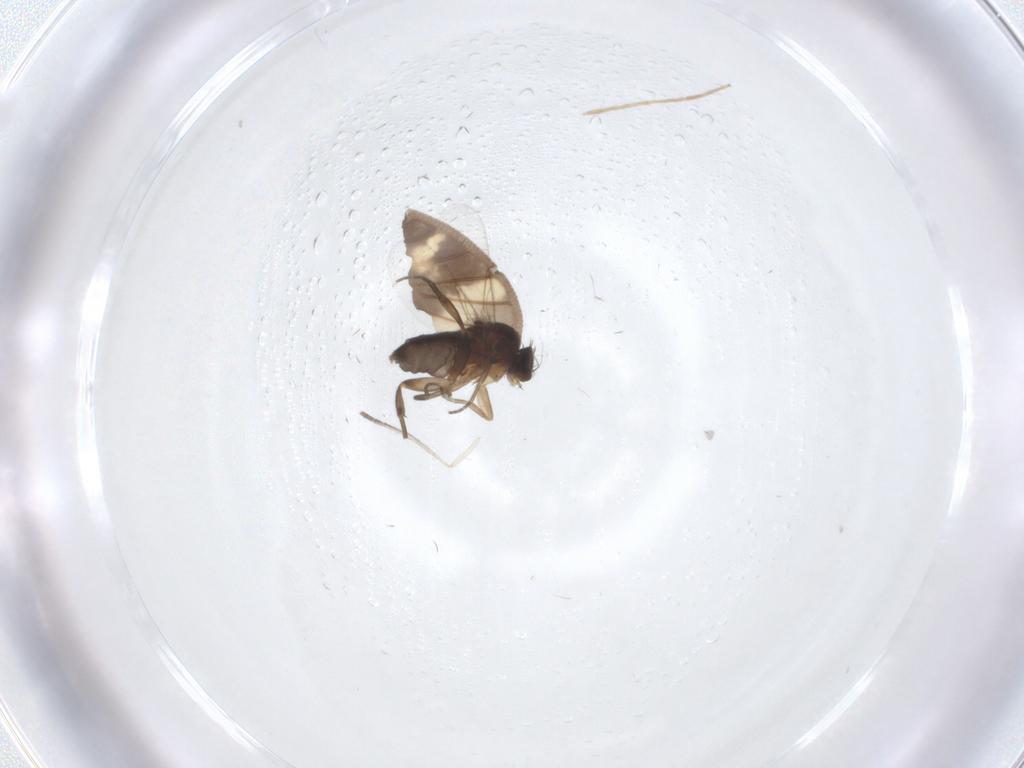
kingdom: Animalia
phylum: Arthropoda
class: Insecta
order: Diptera
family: Phoridae
